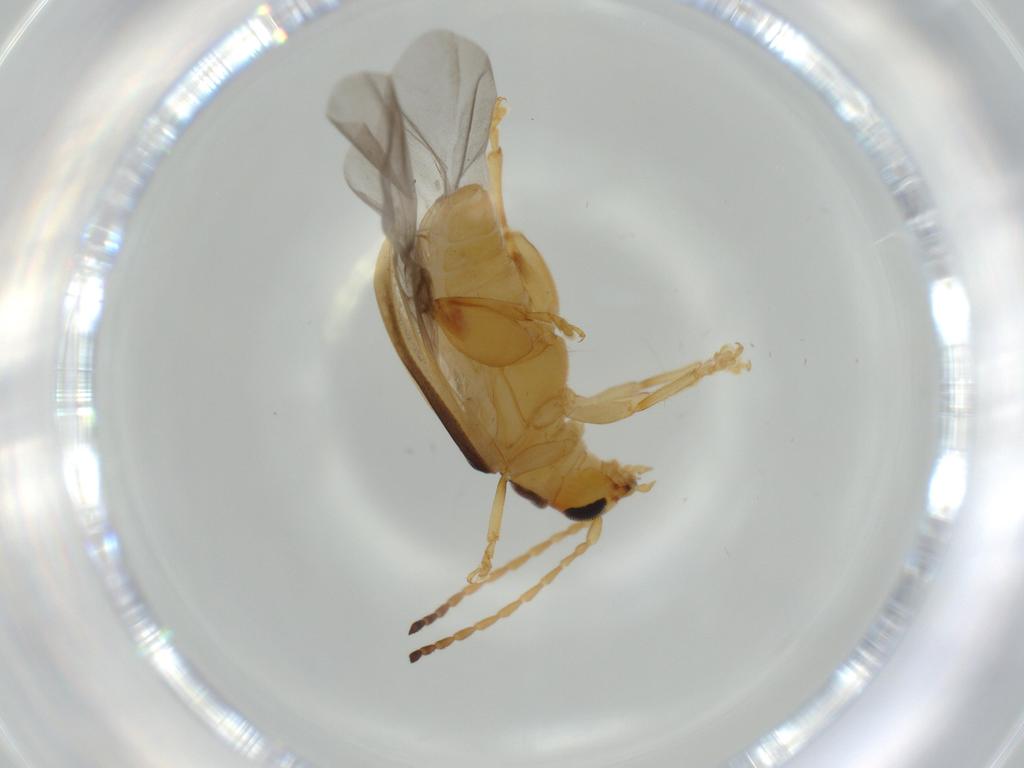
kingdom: Animalia
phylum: Arthropoda
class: Insecta
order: Coleoptera
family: Chrysomelidae
